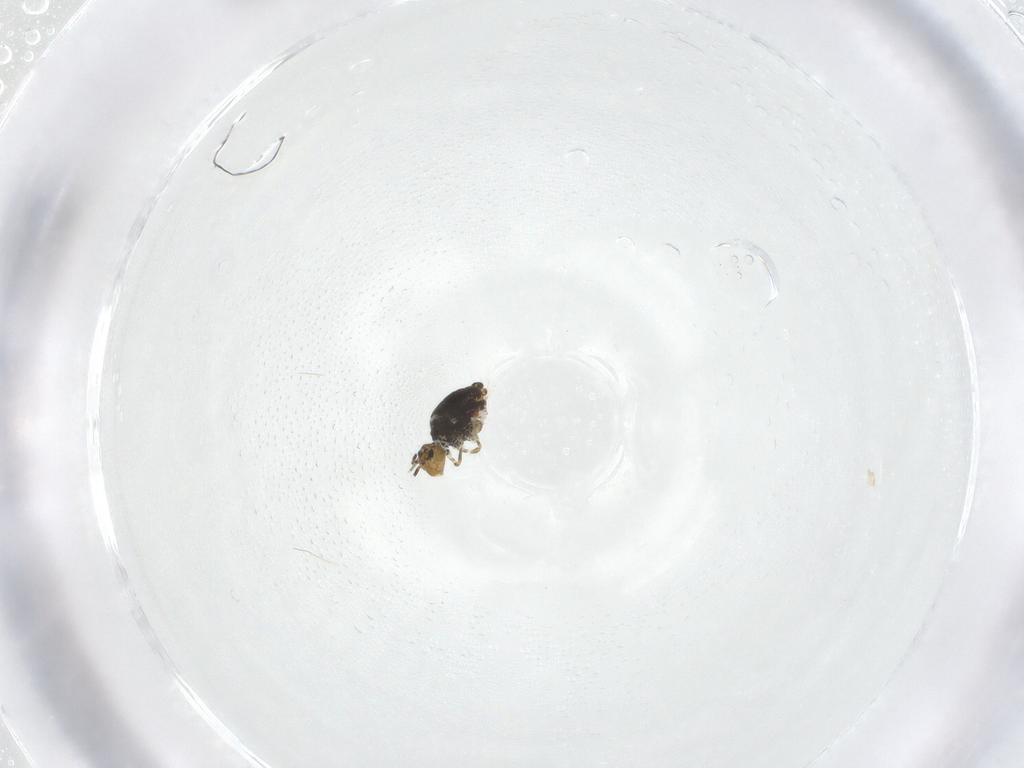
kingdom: Animalia
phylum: Arthropoda
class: Collembola
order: Symphypleona
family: Katiannidae
